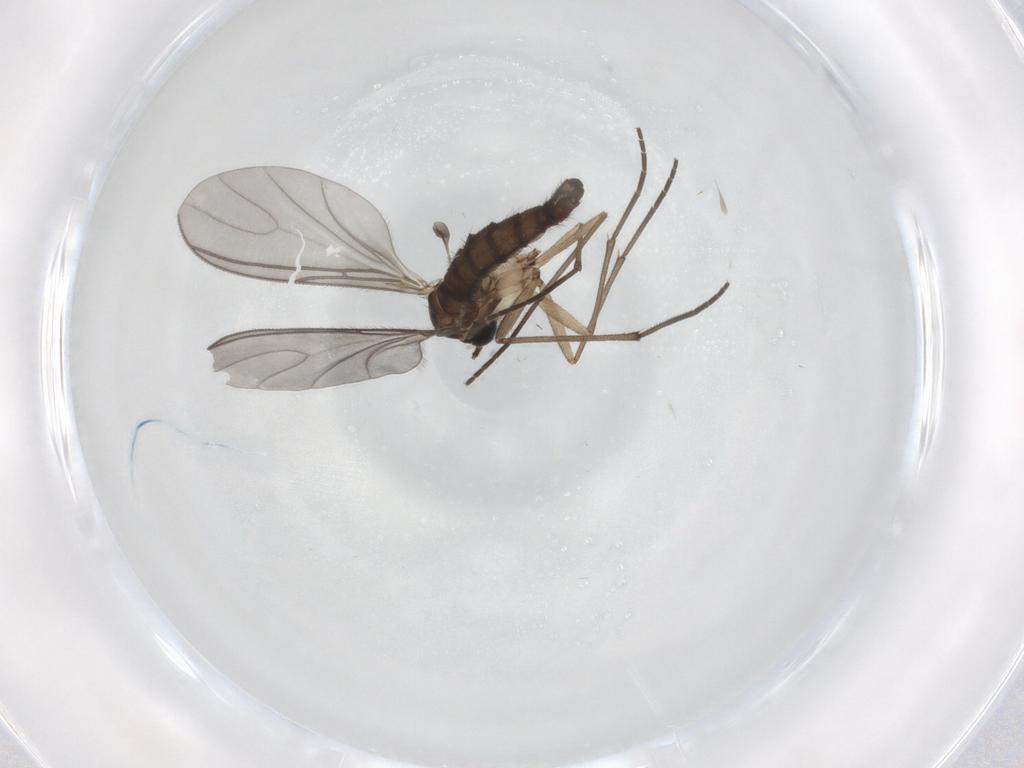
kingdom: Animalia
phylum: Arthropoda
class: Insecta
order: Diptera
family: Sciaridae
